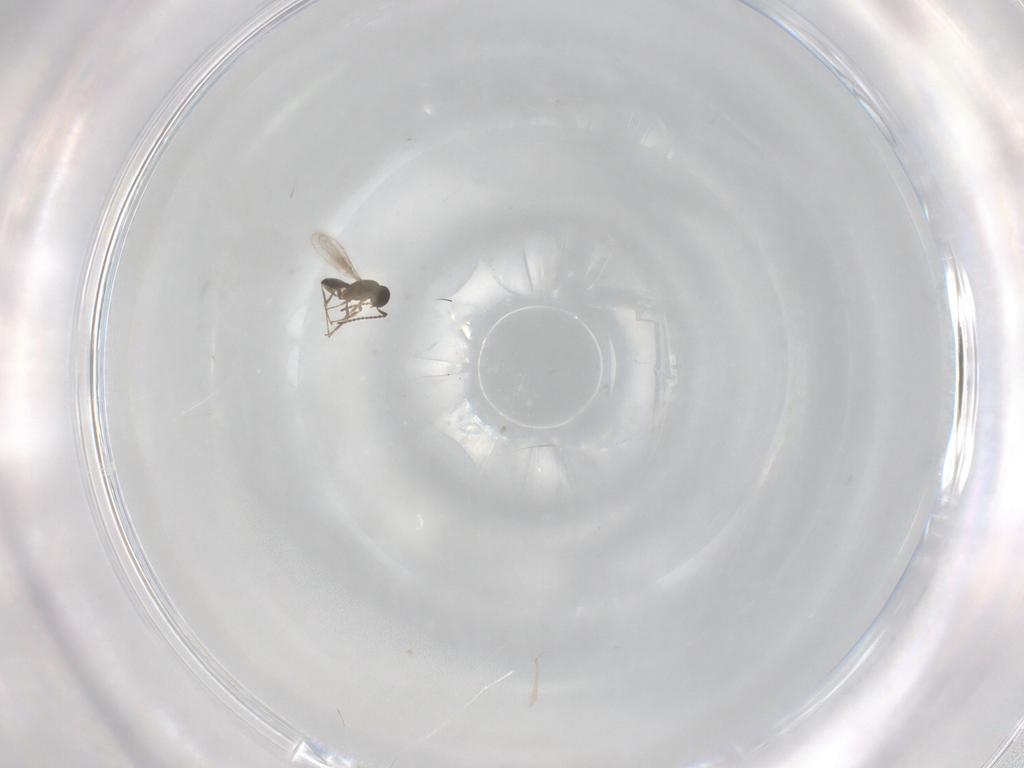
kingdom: Animalia
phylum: Arthropoda
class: Insecta
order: Hymenoptera
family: Scelionidae
